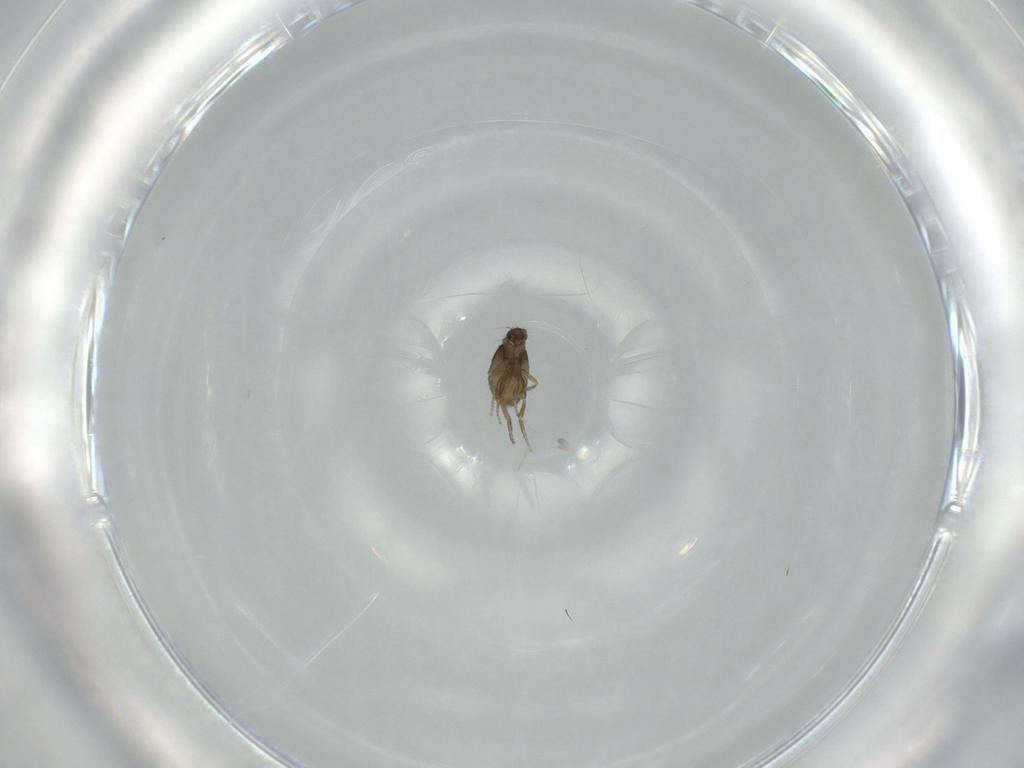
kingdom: Animalia
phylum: Arthropoda
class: Insecta
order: Diptera
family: Phoridae
